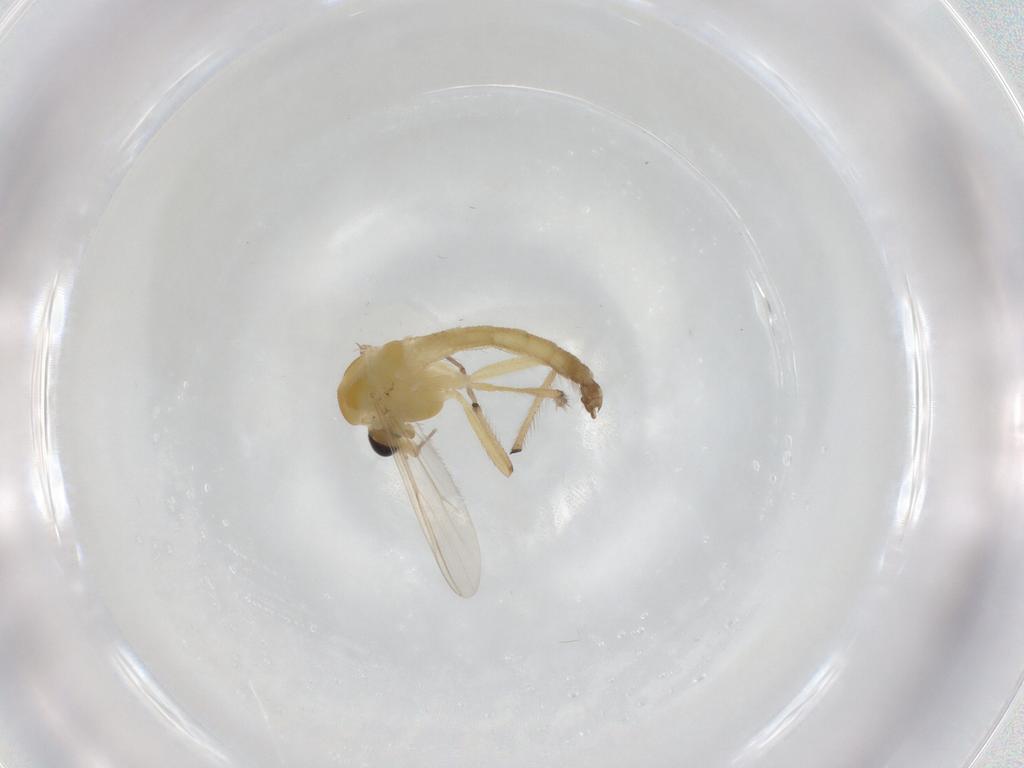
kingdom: Animalia
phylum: Arthropoda
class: Insecta
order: Diptera
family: Chironomidae
